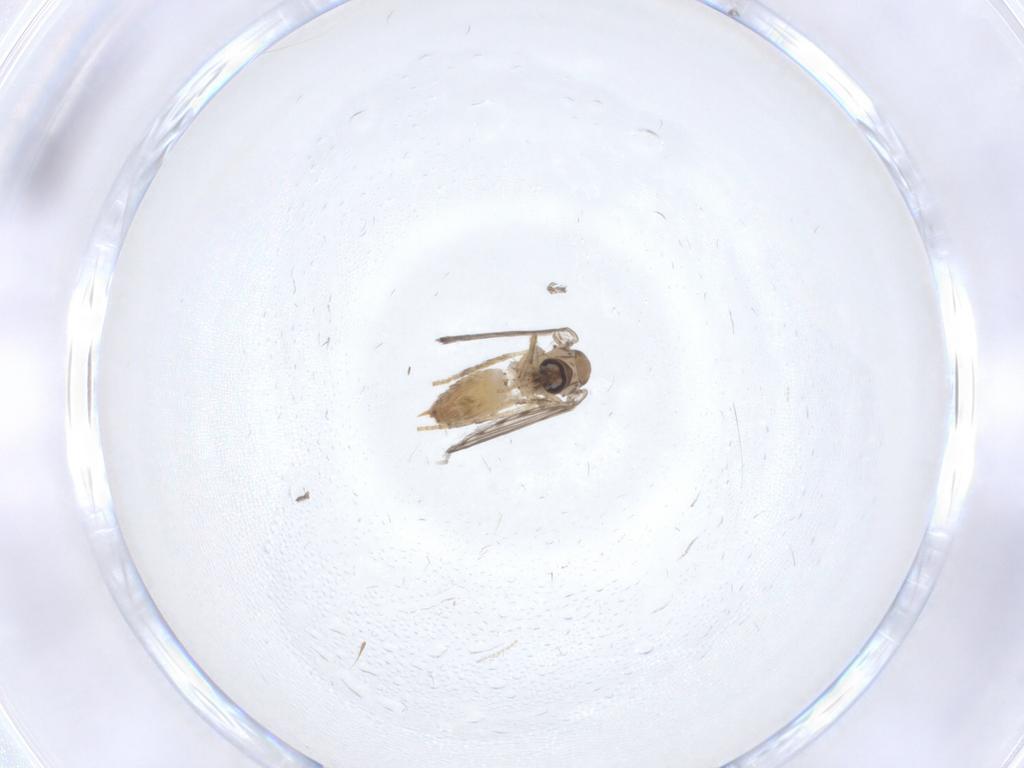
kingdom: Animalia
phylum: Arthropoda
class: Insecta
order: Diptera
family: Psychodidae
